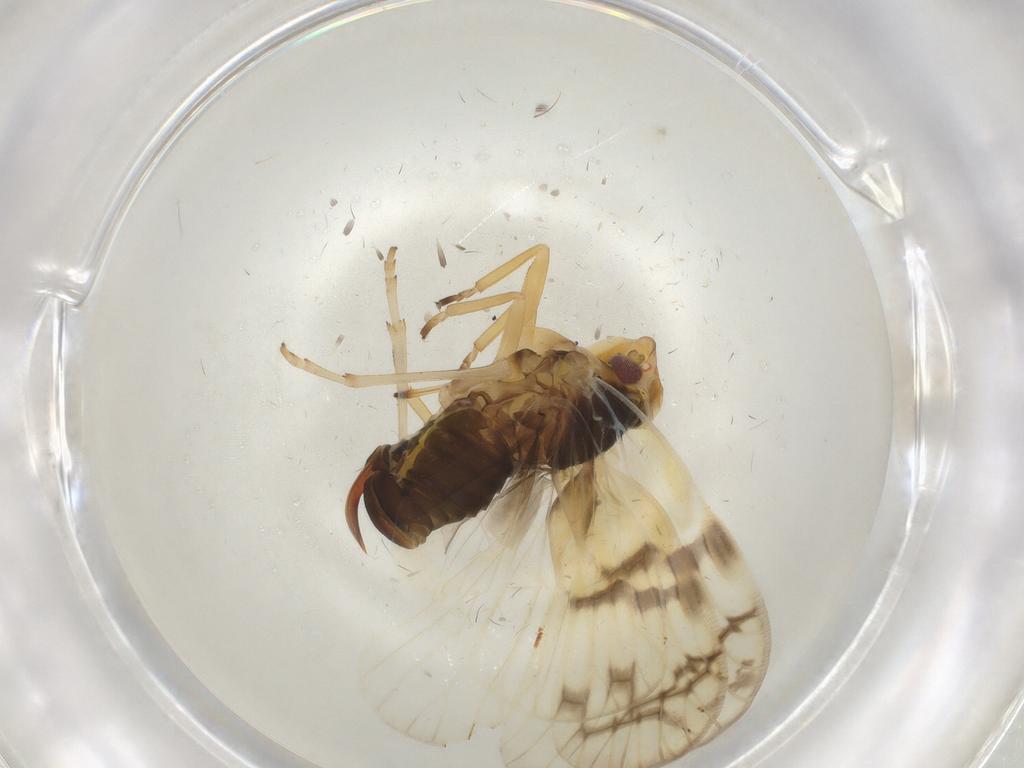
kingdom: Animalia
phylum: Arthropoda
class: Insecta
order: Hemiptera
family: Cixiidae
